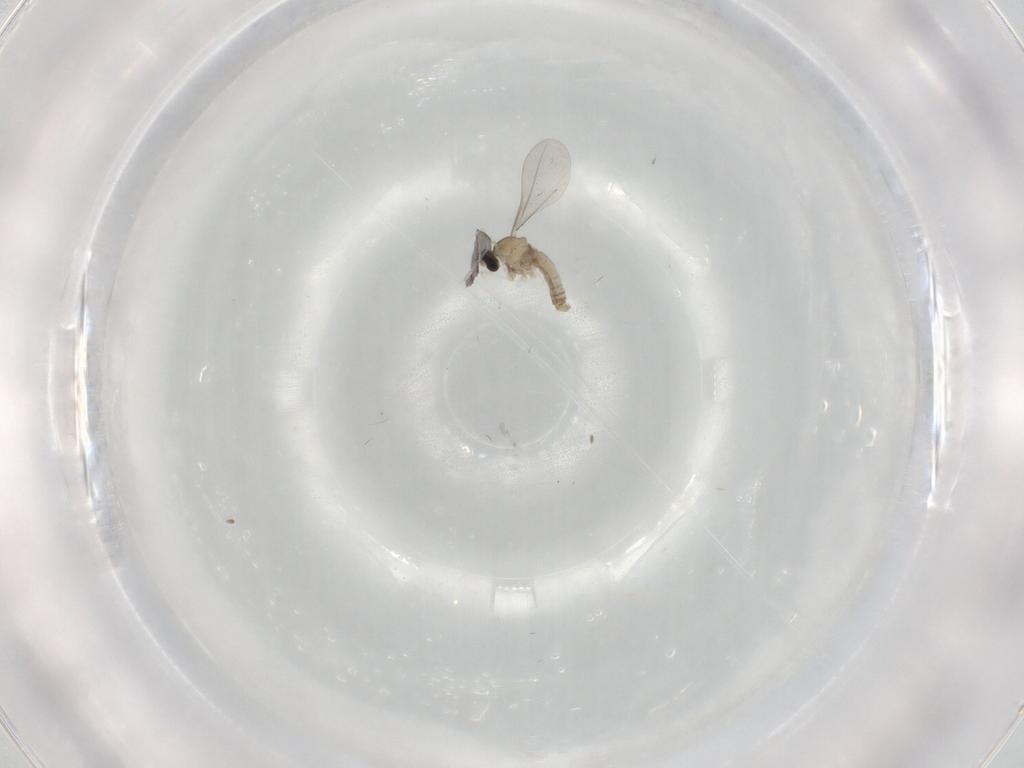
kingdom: Animalia
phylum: Arthropoda
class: Insecta
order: Diptera
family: Cecidomyiidae
